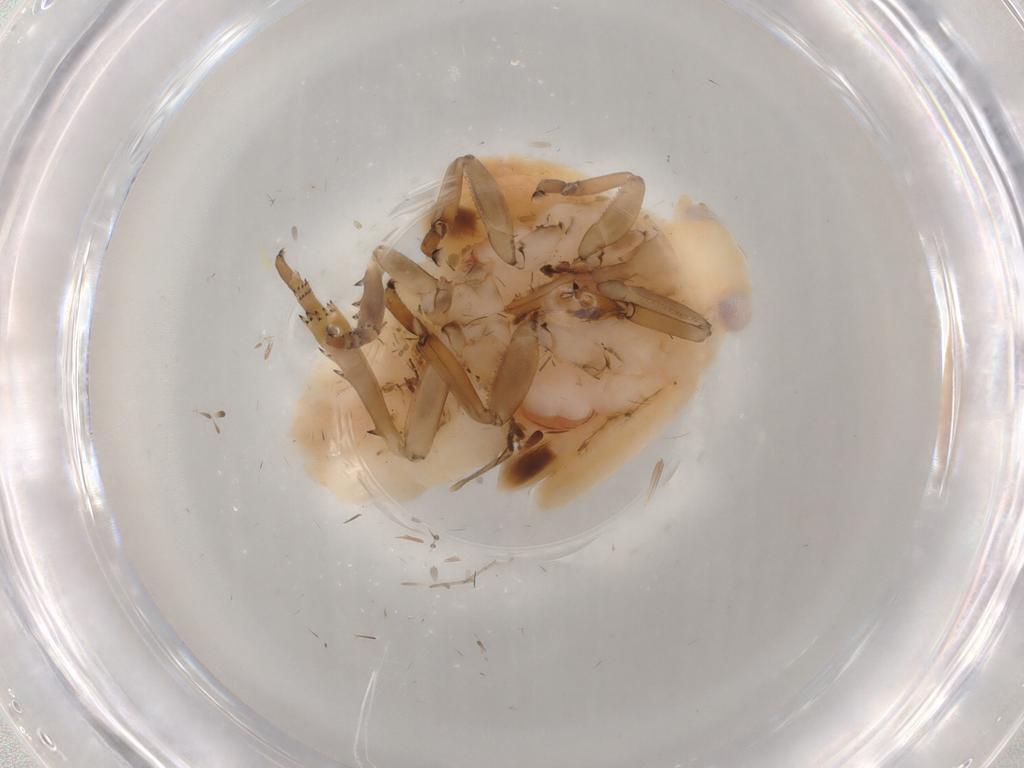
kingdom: Animalia
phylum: Arthropoda
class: Insecta
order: Hemiptera
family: Flatidae
